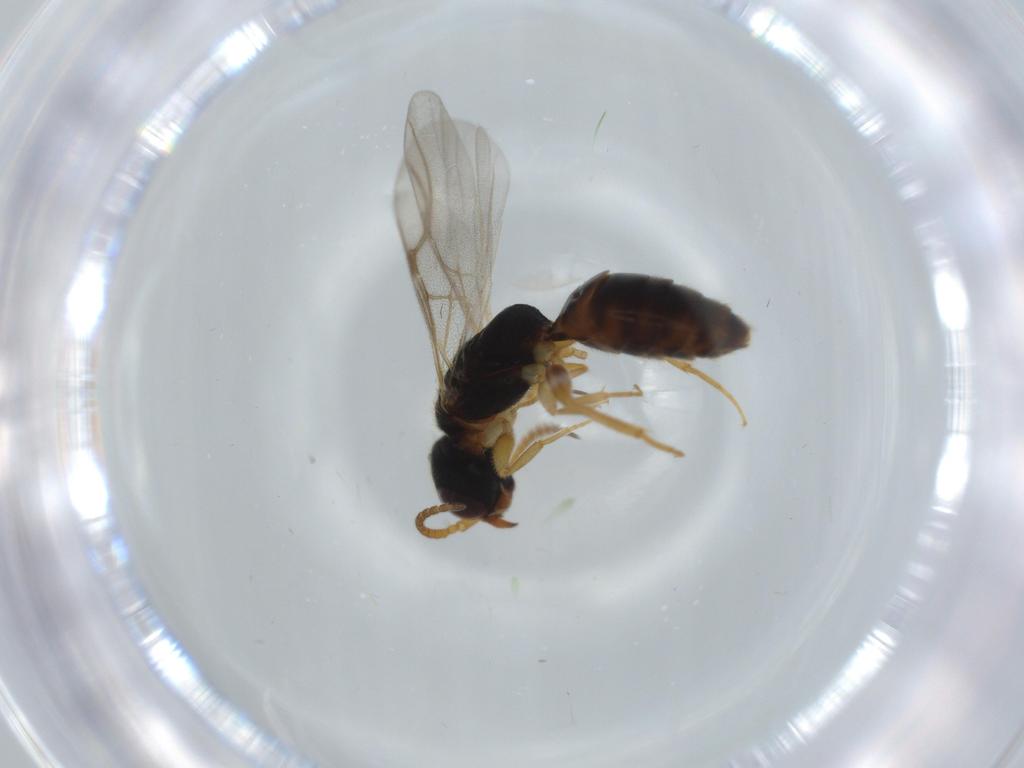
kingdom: Animalia
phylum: Arthropoda
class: Insecta
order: Hymenoptera
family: Bethylidae
